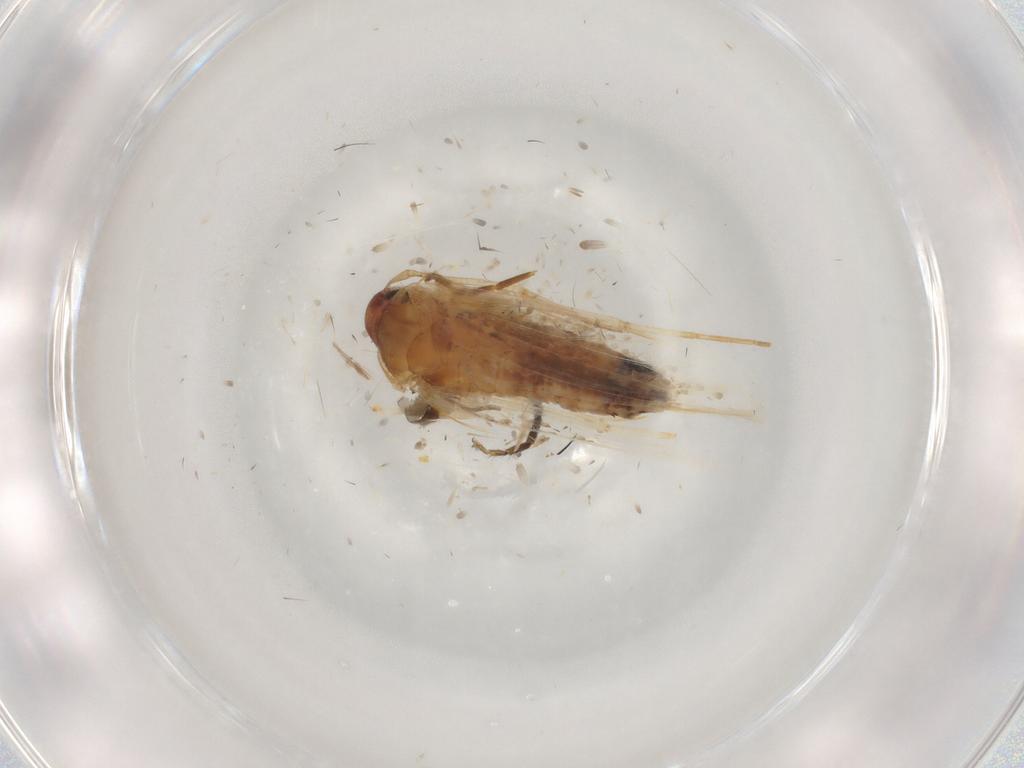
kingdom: Animalia
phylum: Arthropoda
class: Insecta
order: Lepidoptera
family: Cosmopterigidae
